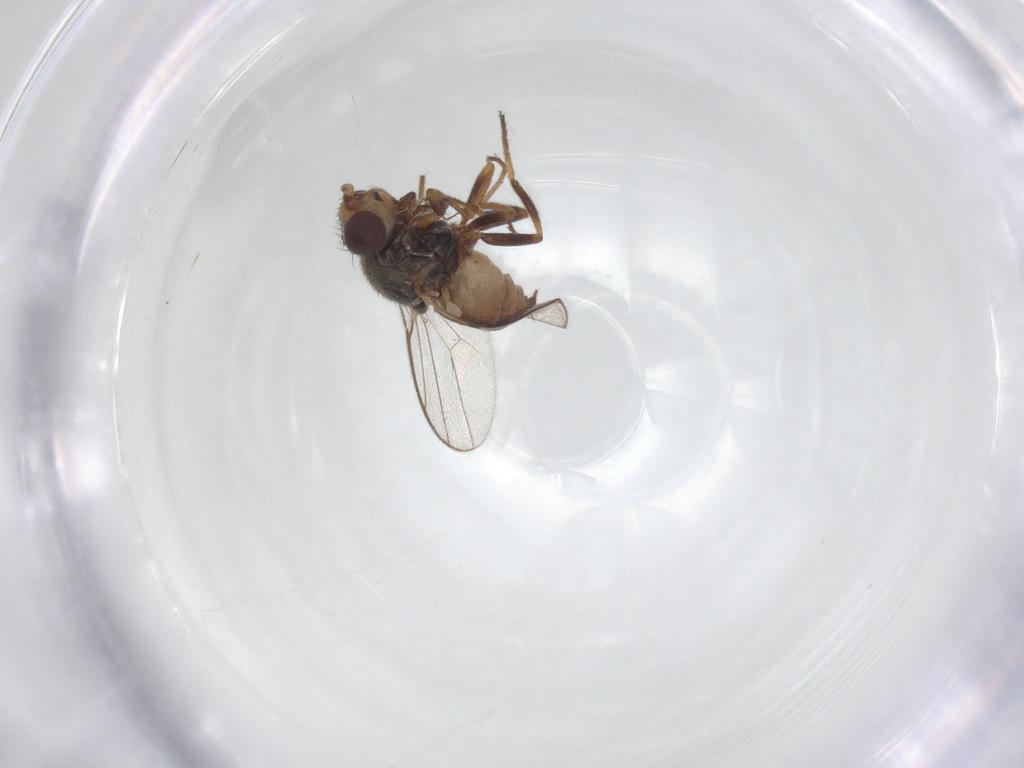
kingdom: Animalia
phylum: Arthropoda
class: Insecta
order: Diptera
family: Chloropidae
